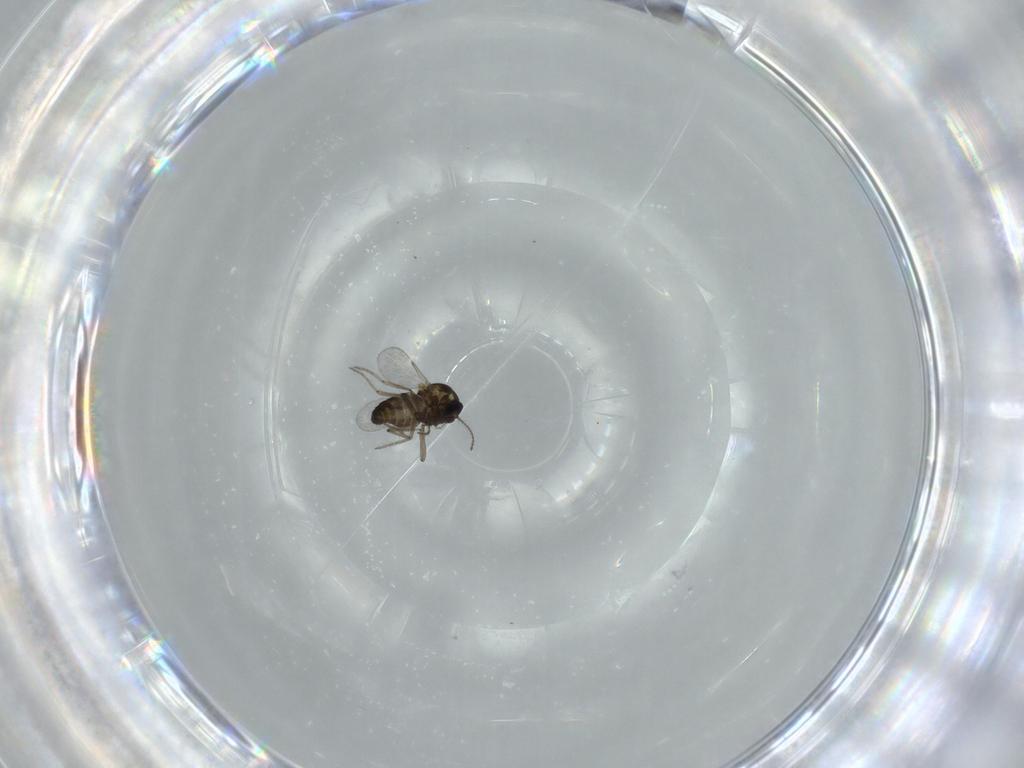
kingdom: Animalia
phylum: Arthropoda
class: Insecta
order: Diptera
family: Ceratopogonidae
